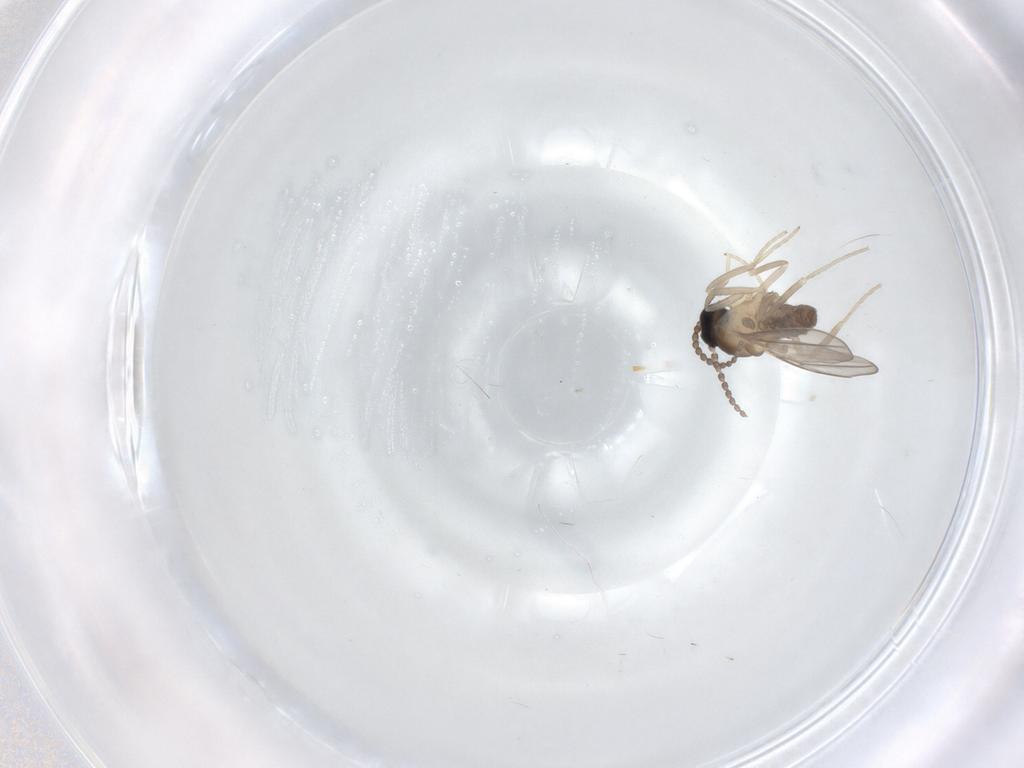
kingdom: Animalia
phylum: Arthropoda
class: Insecta
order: Diptera
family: Cecidomyiidae
